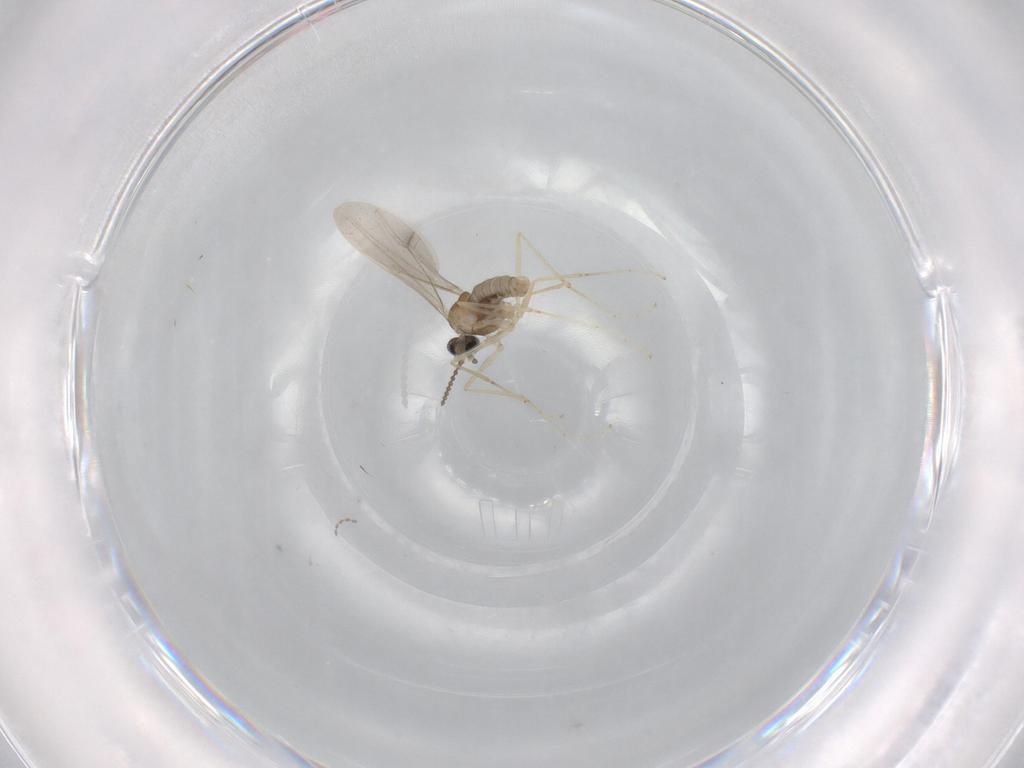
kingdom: Animalia
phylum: Arthropoda
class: Insecta
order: Diptera
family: Cecidomyiidae
